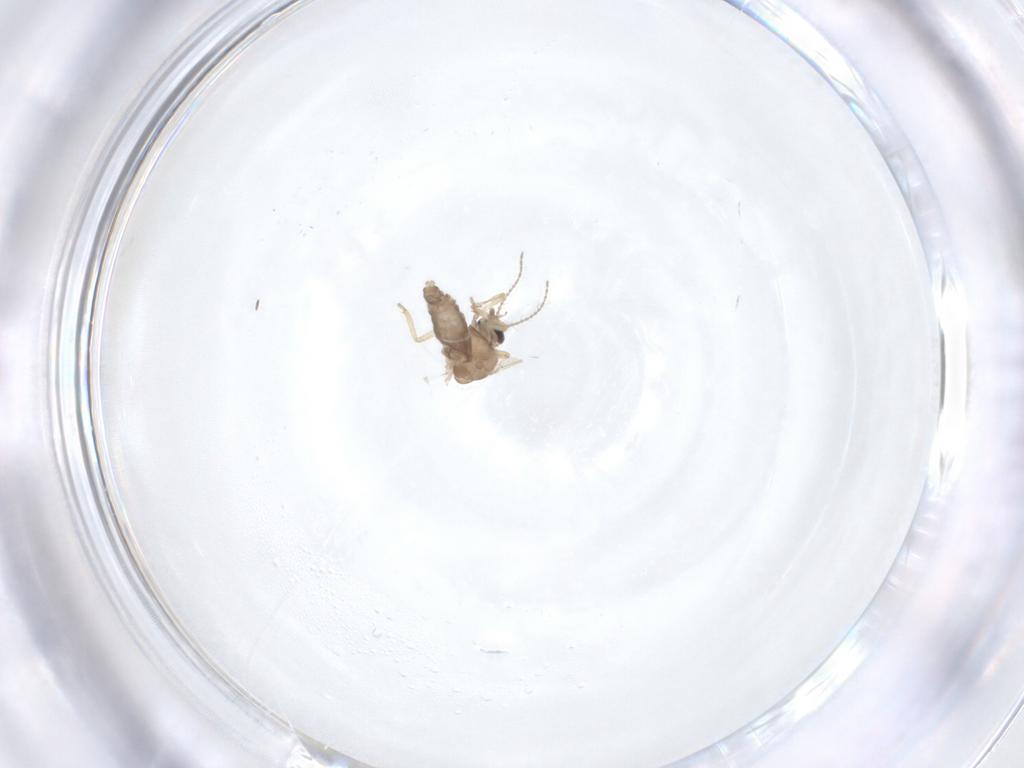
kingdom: Animalia
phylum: Arthropoda
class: Insecta
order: Diptera
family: Ceratopogonidae
